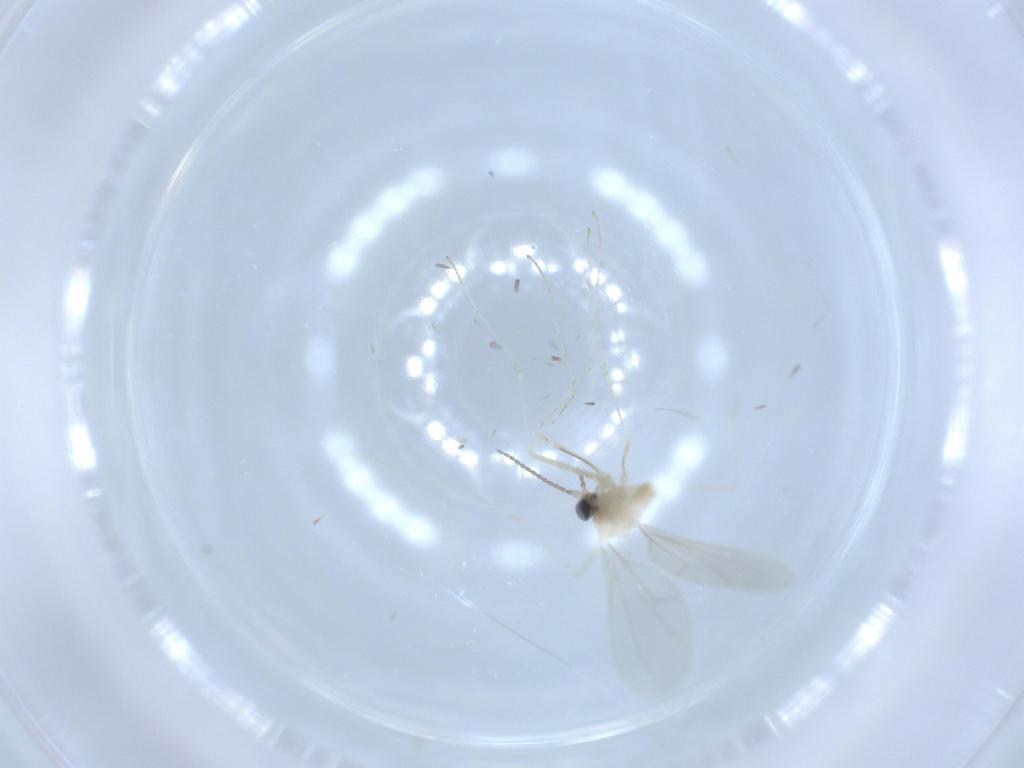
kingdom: Animalia
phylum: Arthropoda
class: Insecta
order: Diptera
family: Cecidomyiidae
